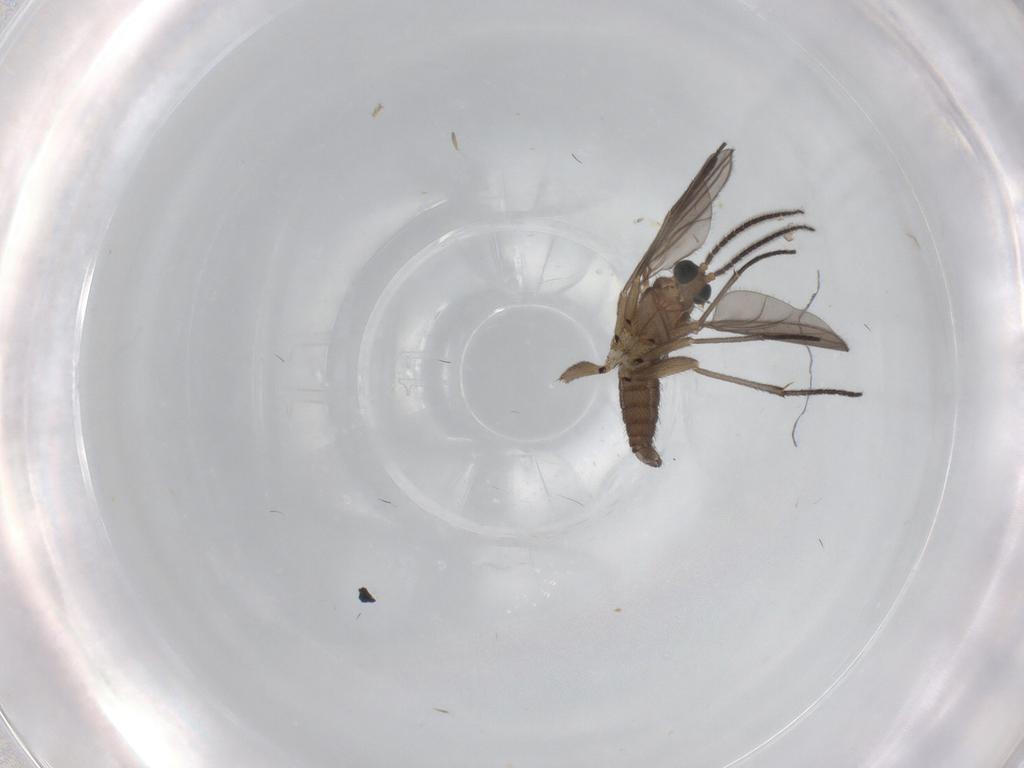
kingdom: Animalia
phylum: Arthropoda
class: Insecta
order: Diptera
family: Sciaridae
